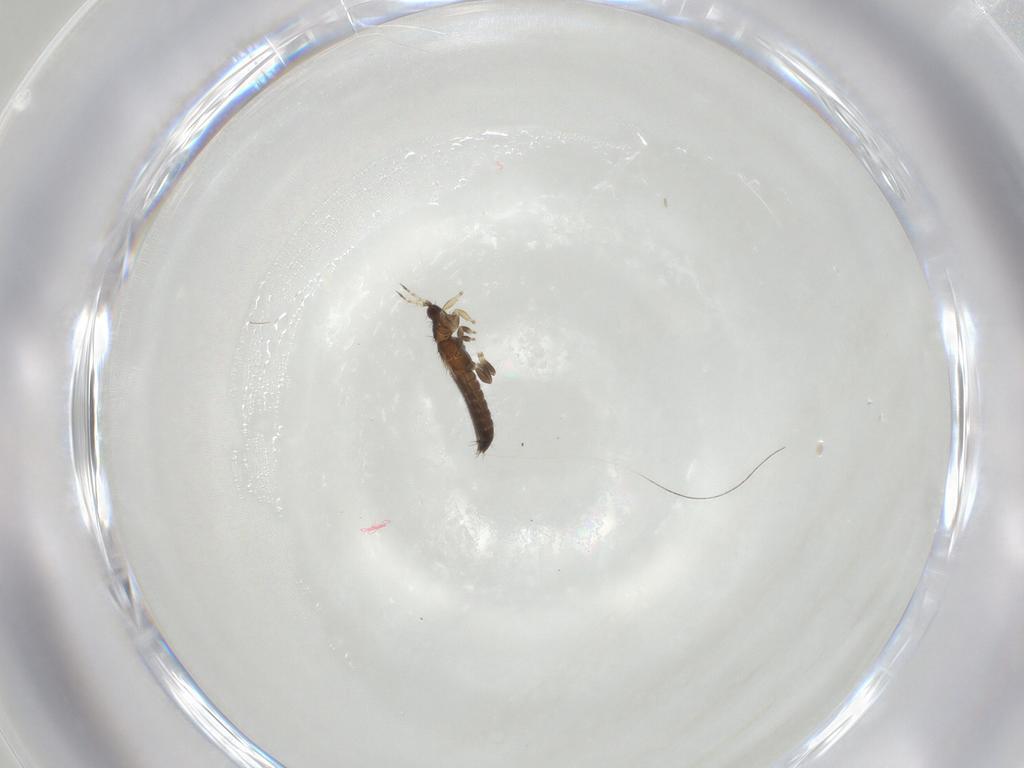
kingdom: Animalia
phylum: Arthropoda
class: Insecta
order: Thysanoptera
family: Thripidae
